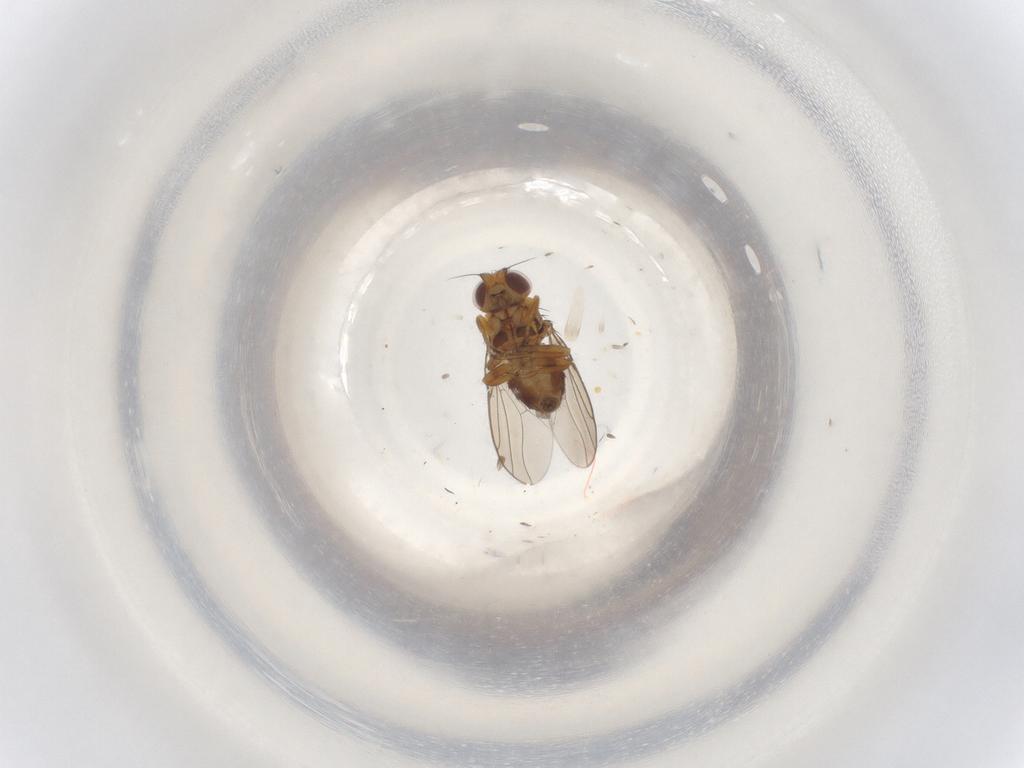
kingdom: Animalia
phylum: Arthropoda
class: Insecta
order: Diptera
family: Chloropidae
